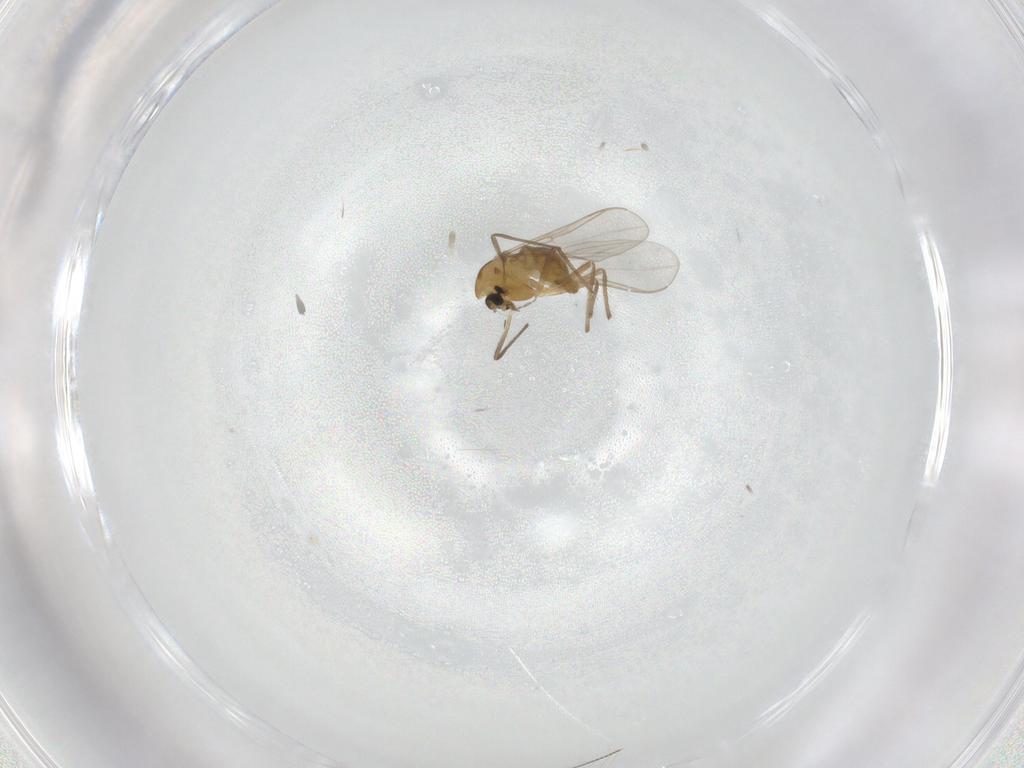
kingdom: Animalia
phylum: Arthropoda
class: Insecta
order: Diptera
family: Chironomidae
